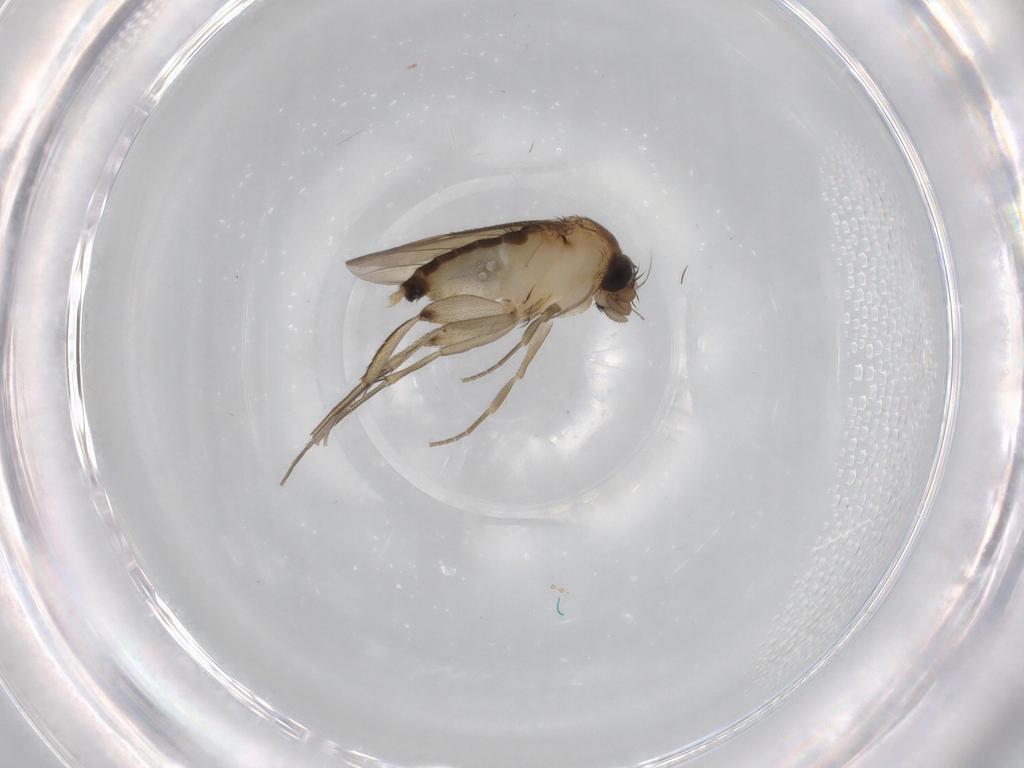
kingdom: Animalia
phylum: Arthropoda
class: Insecta
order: Diptera
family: Phoridae
